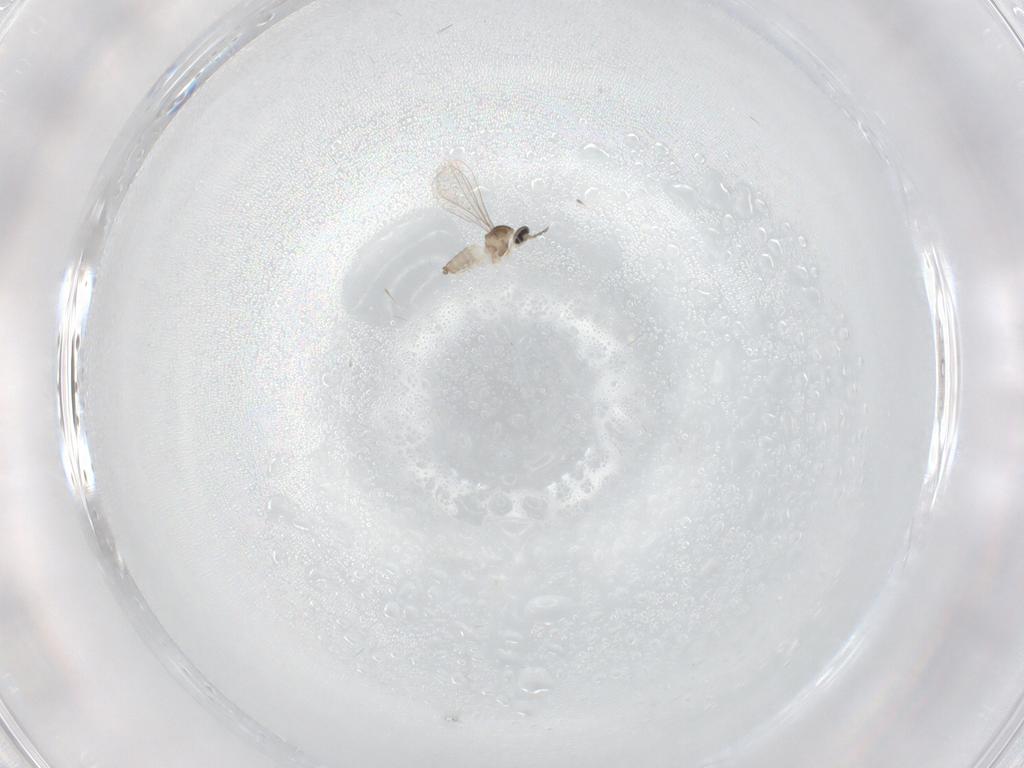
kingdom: Animalia
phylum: Arthropoda
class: Insecta
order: Diptera
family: Cecidomyiidae
